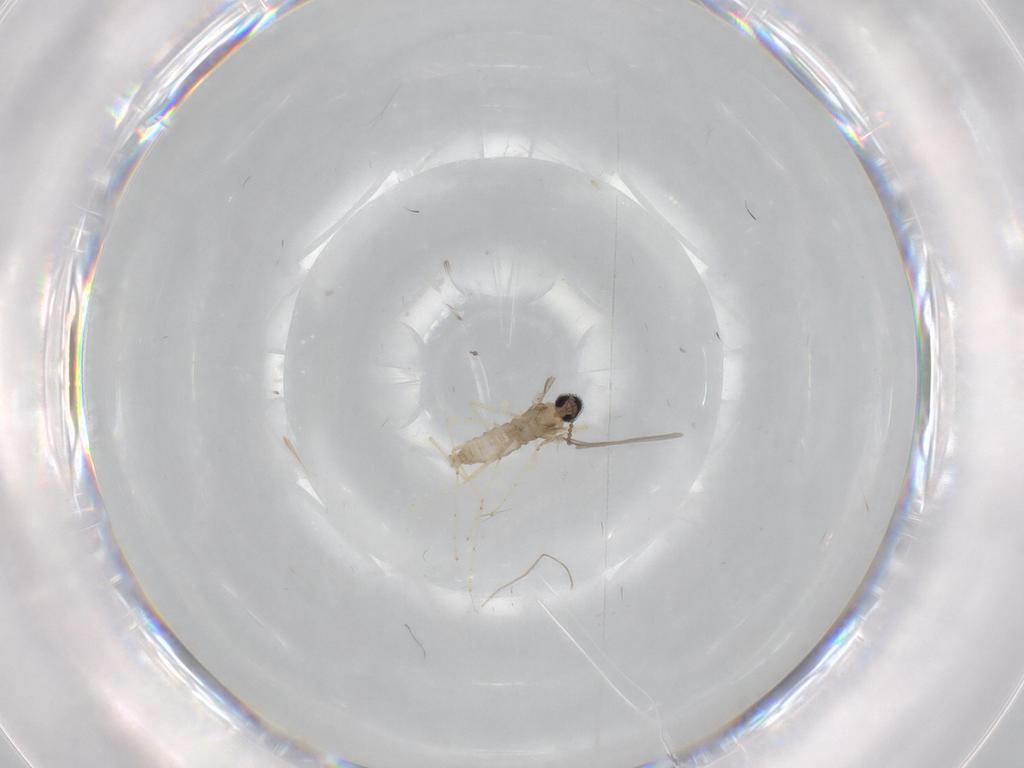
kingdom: Animalia
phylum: Arthropoda
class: Insecta
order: Diptera
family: Cecidomyiidae
